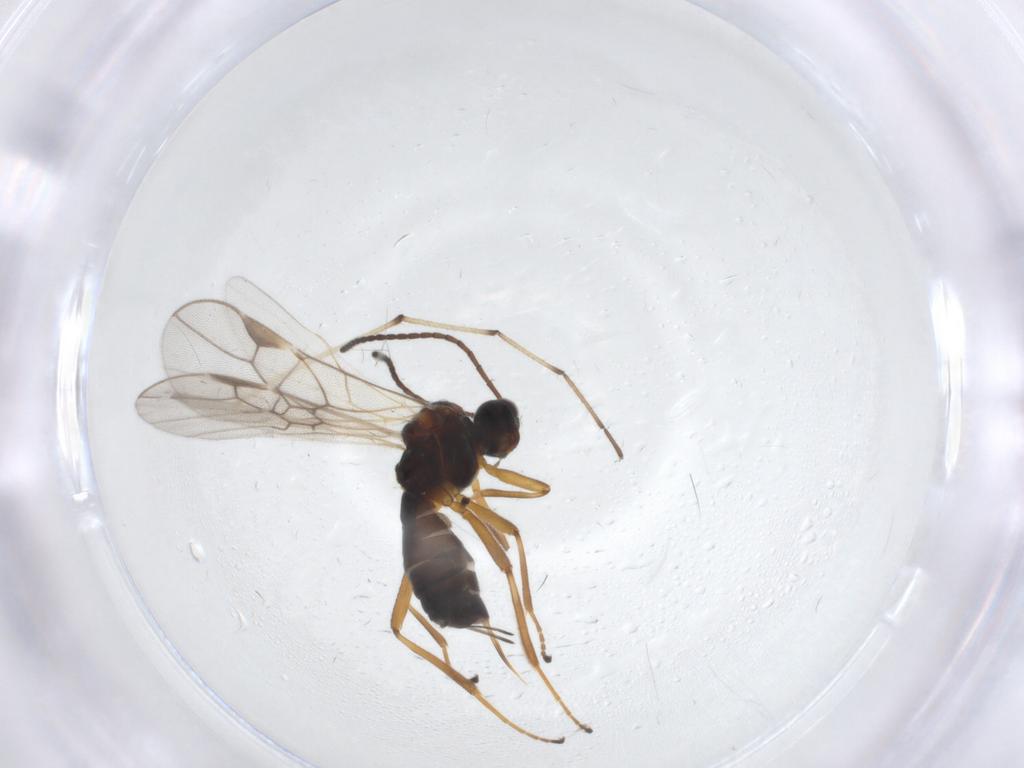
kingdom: Animalia
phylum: Arthropoda
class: Insecta
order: Hymenoptera
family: Braconidae
